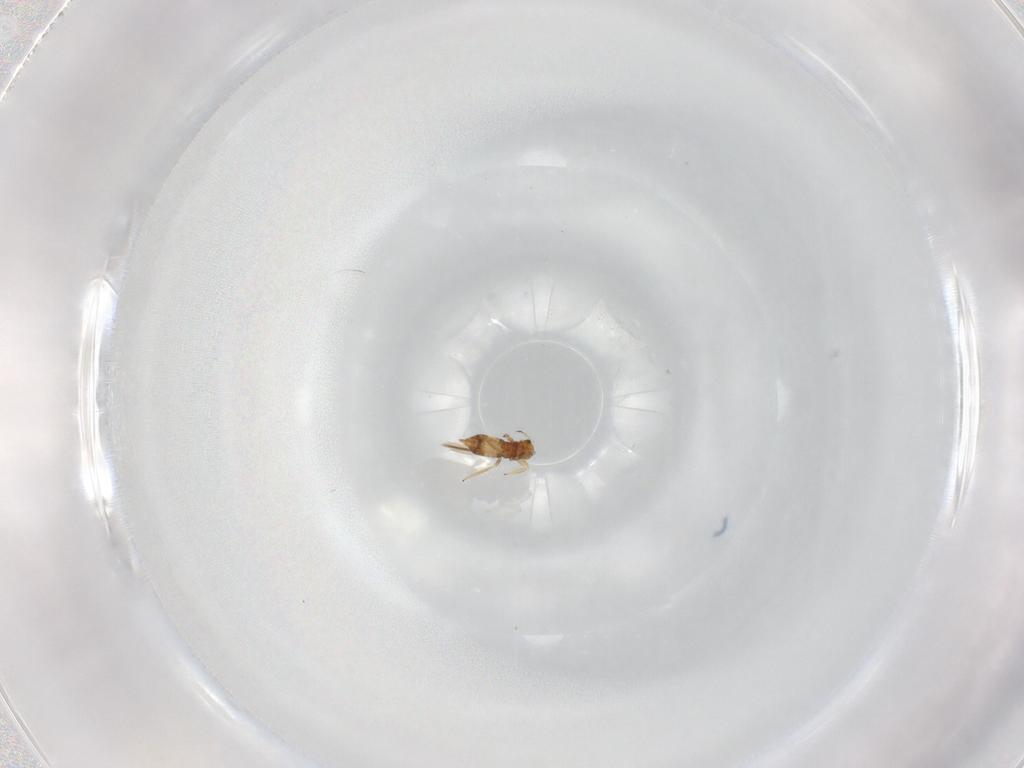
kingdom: Animalia
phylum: Arthropoda
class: Insecta
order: Thysanoptera
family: Thripidae
